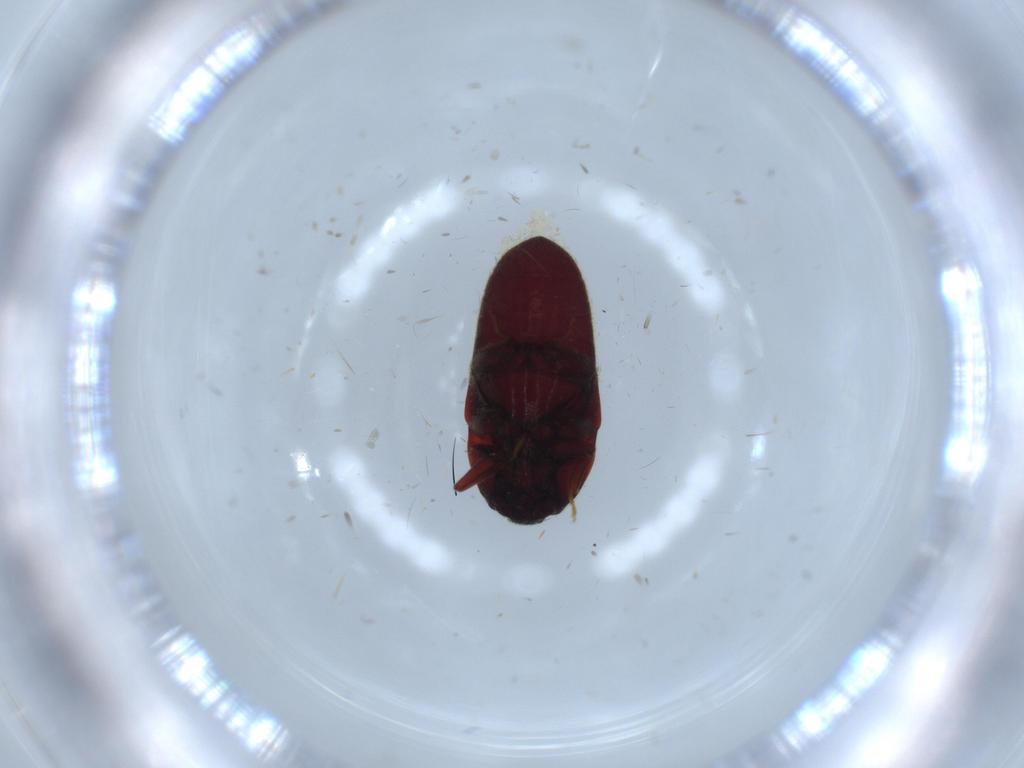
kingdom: Animalia
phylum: Arthropoda
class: Insecta
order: Coleoptera
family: Throscidae
